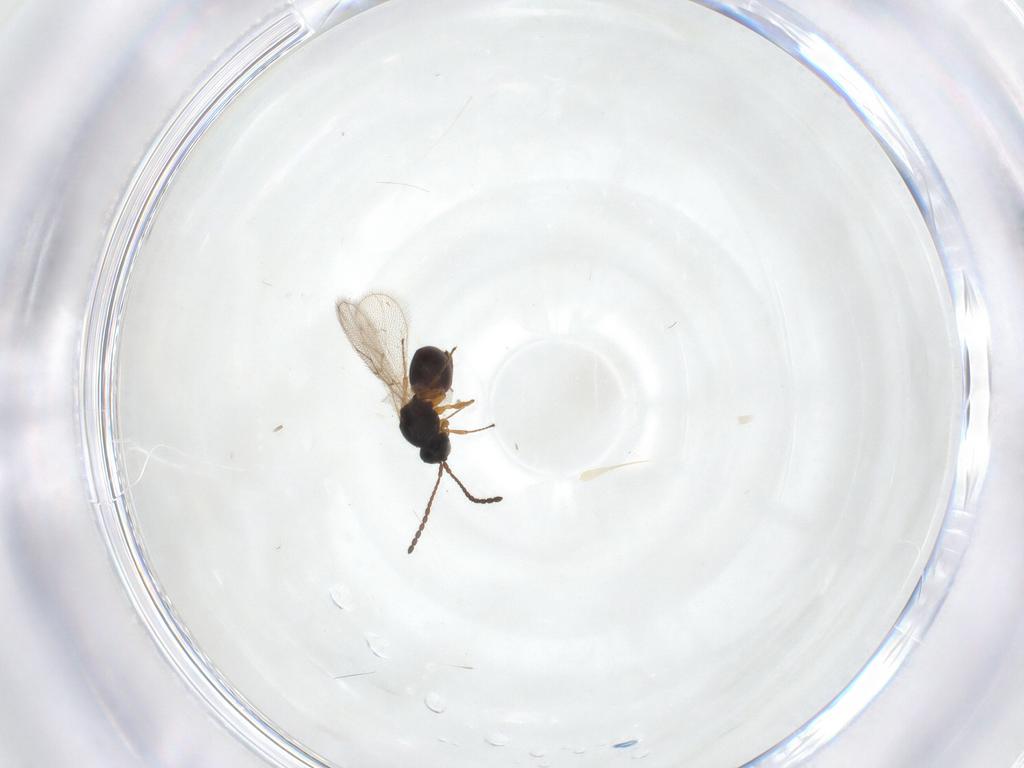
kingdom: Animalia
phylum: Arthropoda
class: Insecta
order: Hymenoptera
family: Figitidae
